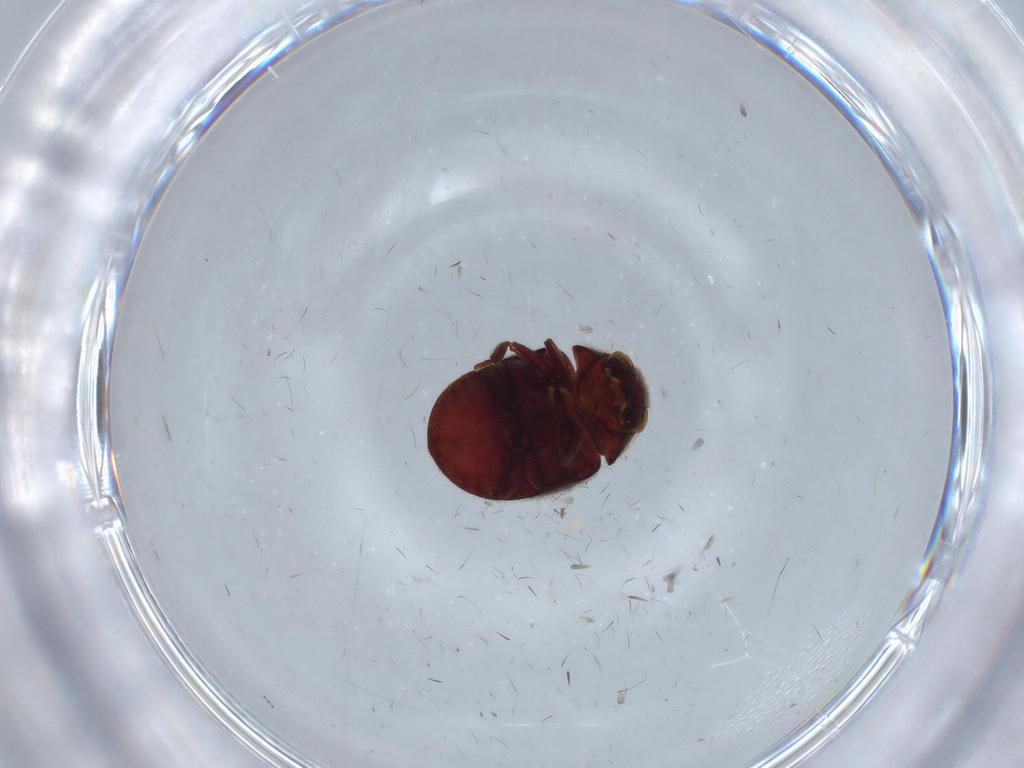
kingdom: Animalia
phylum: Arthropoda
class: Insecta
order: Coleoptera
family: Ptinidae
